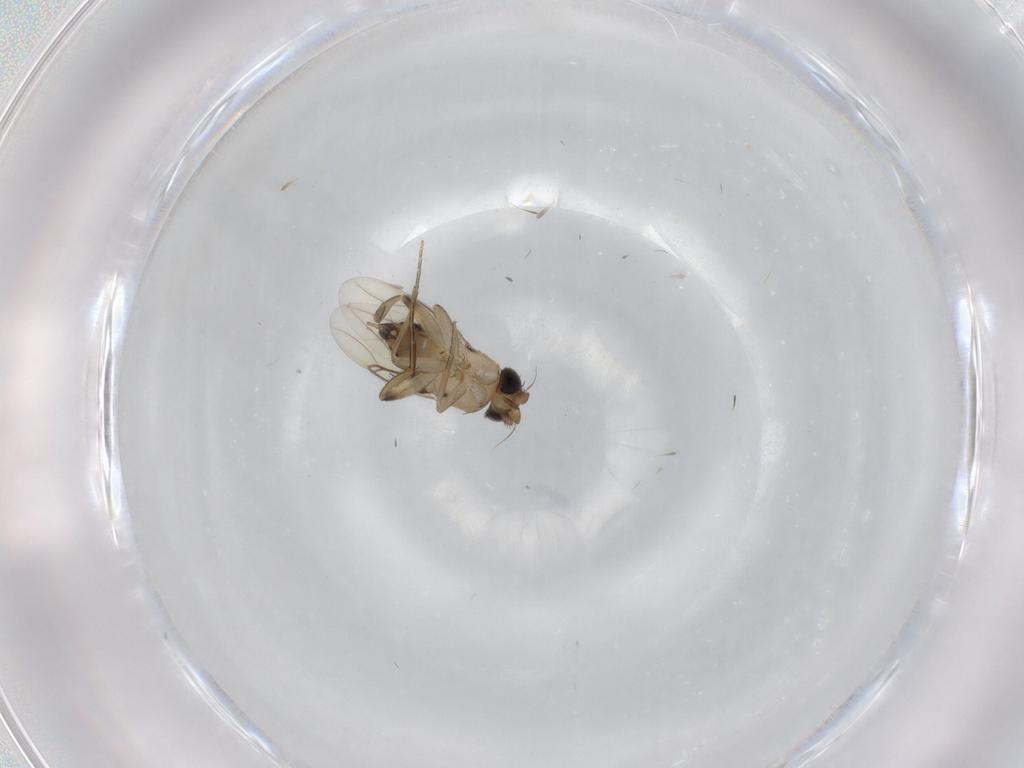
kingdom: Animalia
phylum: Arthropoda
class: Insecta
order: Diptera
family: Phoridae
